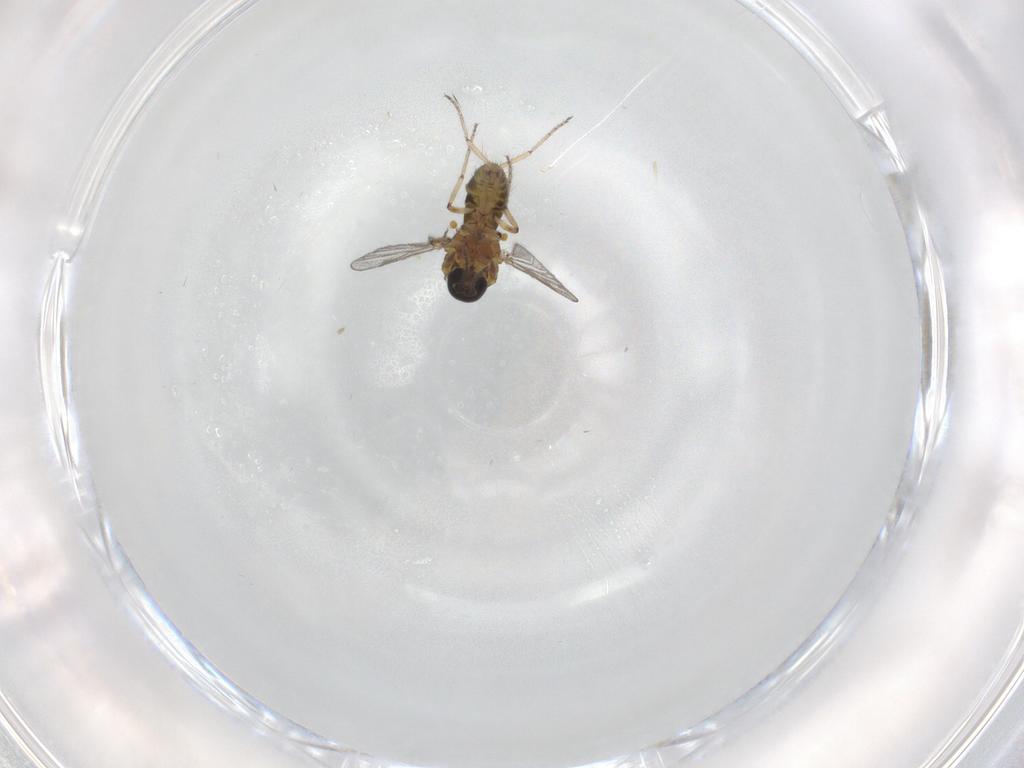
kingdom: Animalia
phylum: Arthropoda
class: Insecta
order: Diptera
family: Ceratopogonidae
